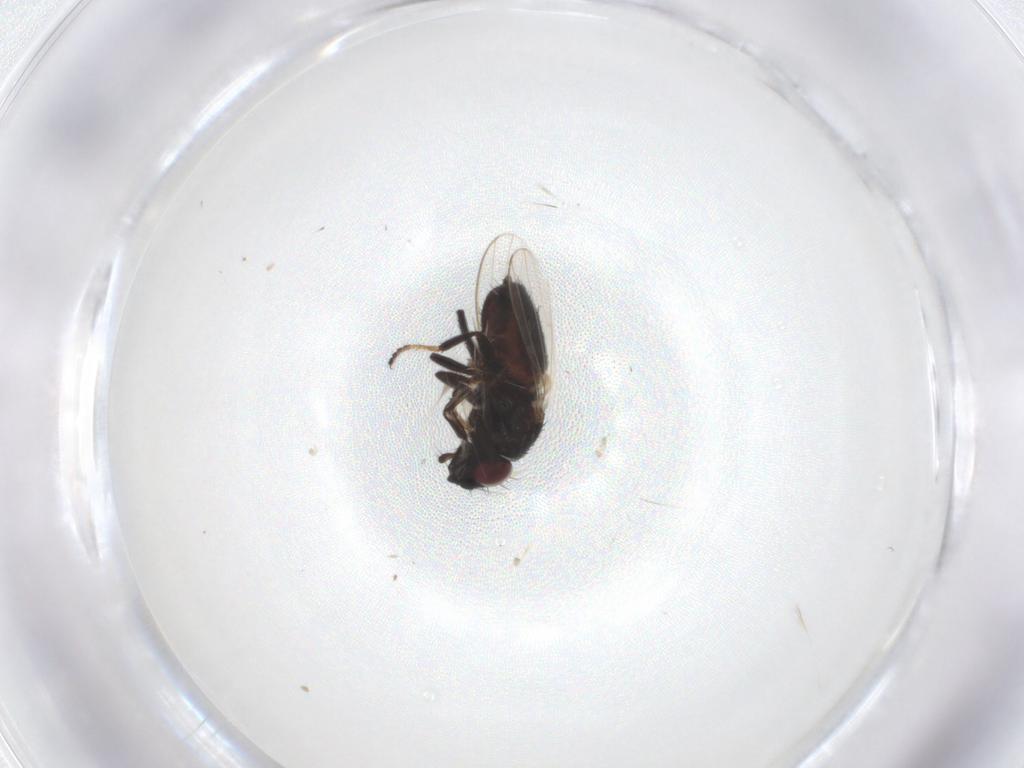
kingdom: Animalia
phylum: Arthropoda
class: Insecta
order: Diptera
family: Milichiidae
